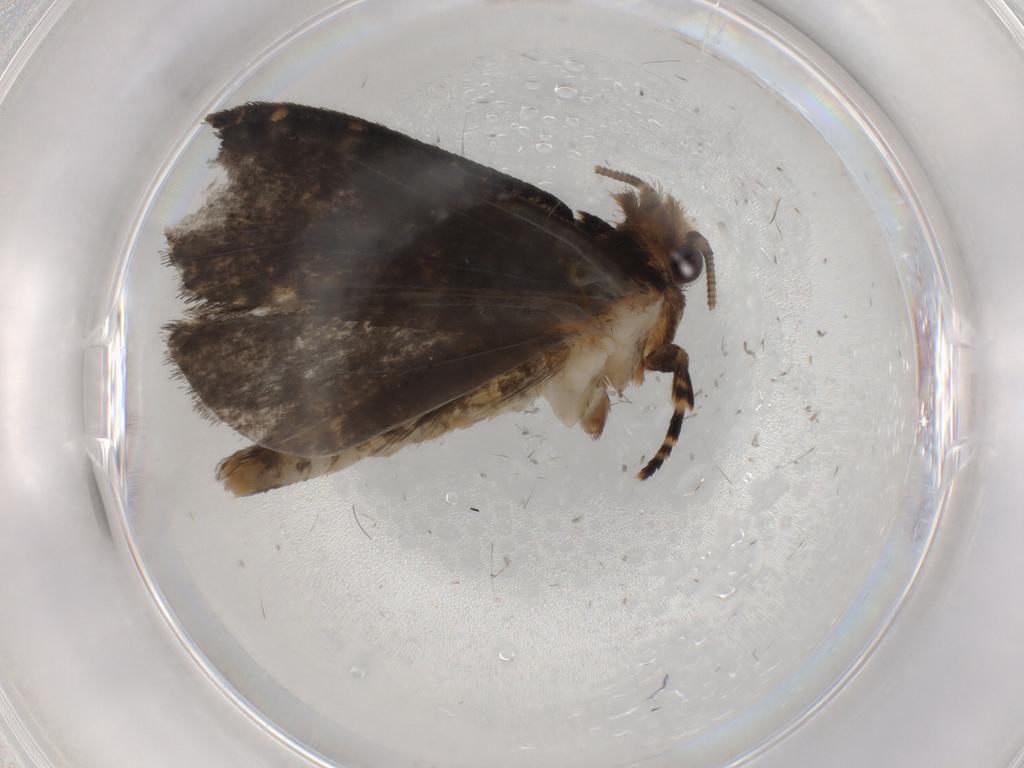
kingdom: Animalia
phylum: Arthropoda
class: Insecta
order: Lepidoptera
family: Tineidae
